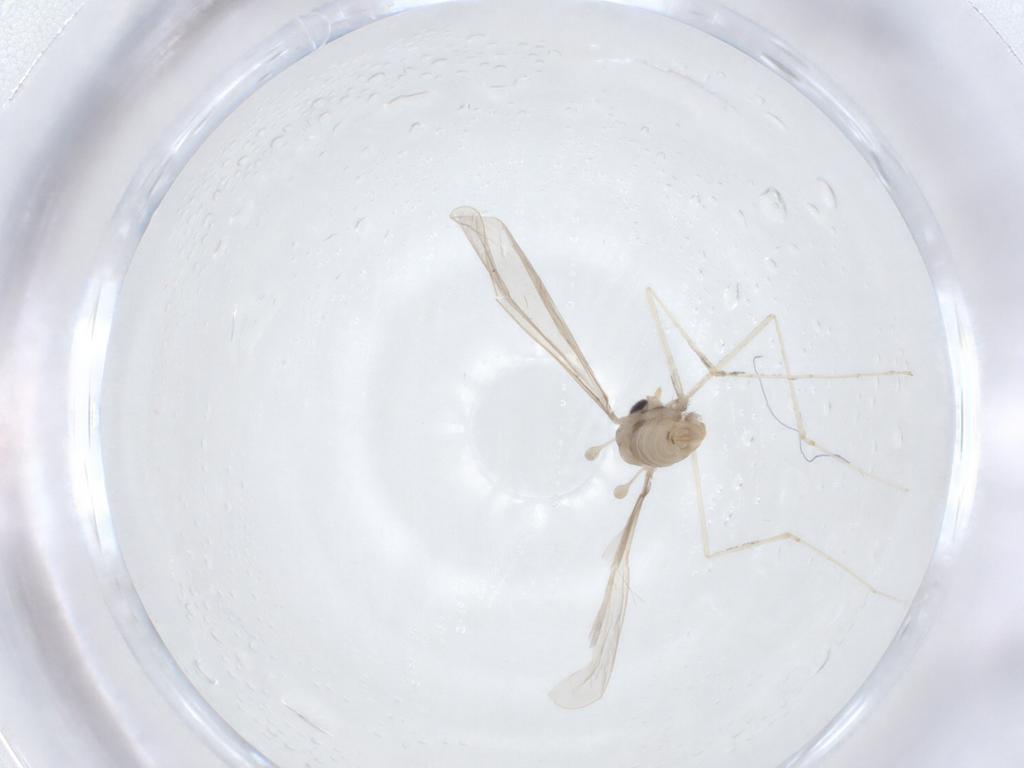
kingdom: Animalia
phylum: Arthropoda
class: Insecta
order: Diptera
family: Cecidomyiidae
